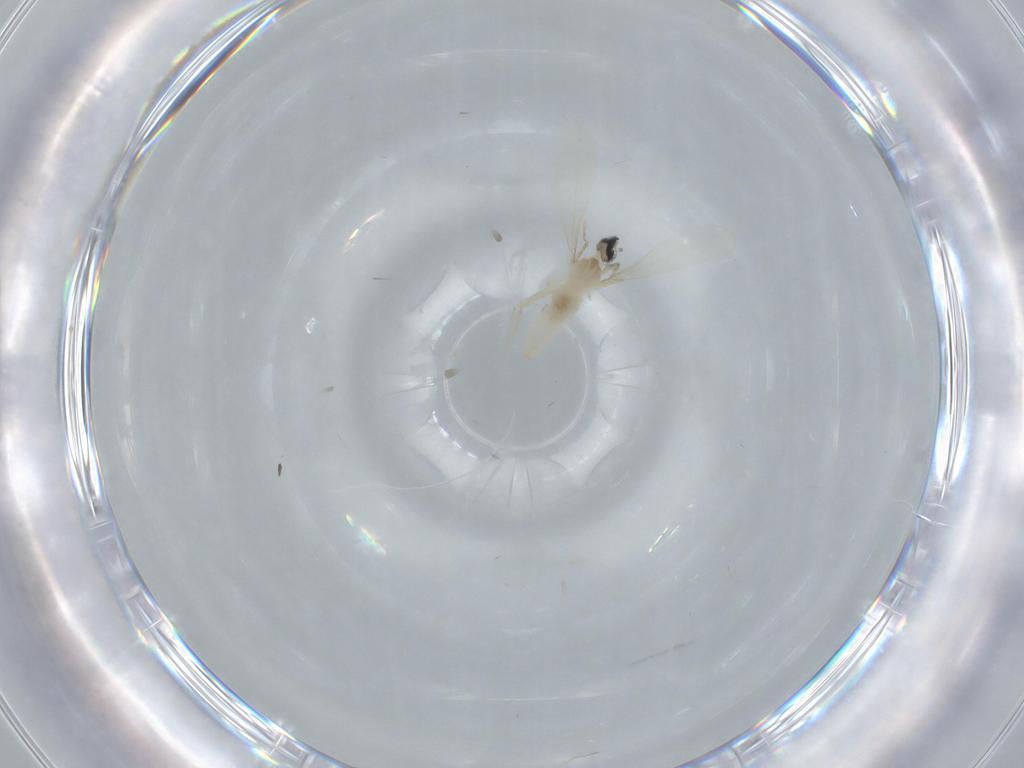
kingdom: Animalia
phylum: Arthropoda
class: Insecta
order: Diptera
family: Cecidomyiidae
